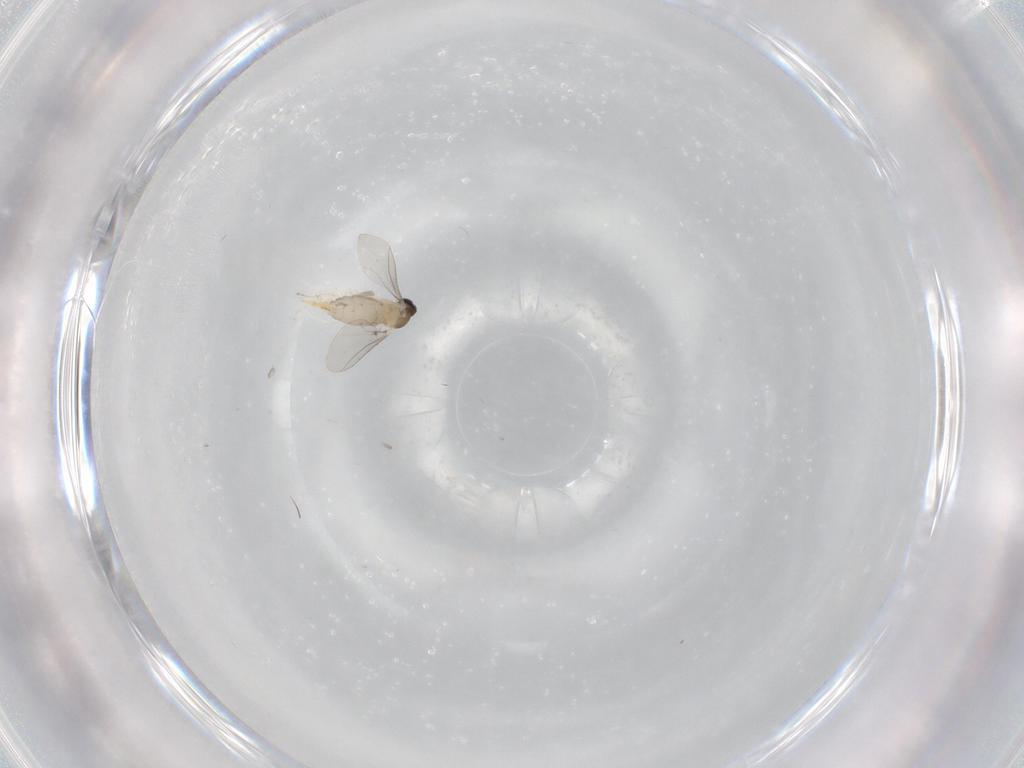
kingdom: Animalia
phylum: Arthropoda
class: Insecta
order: Diptera
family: Cecidomyiidae
